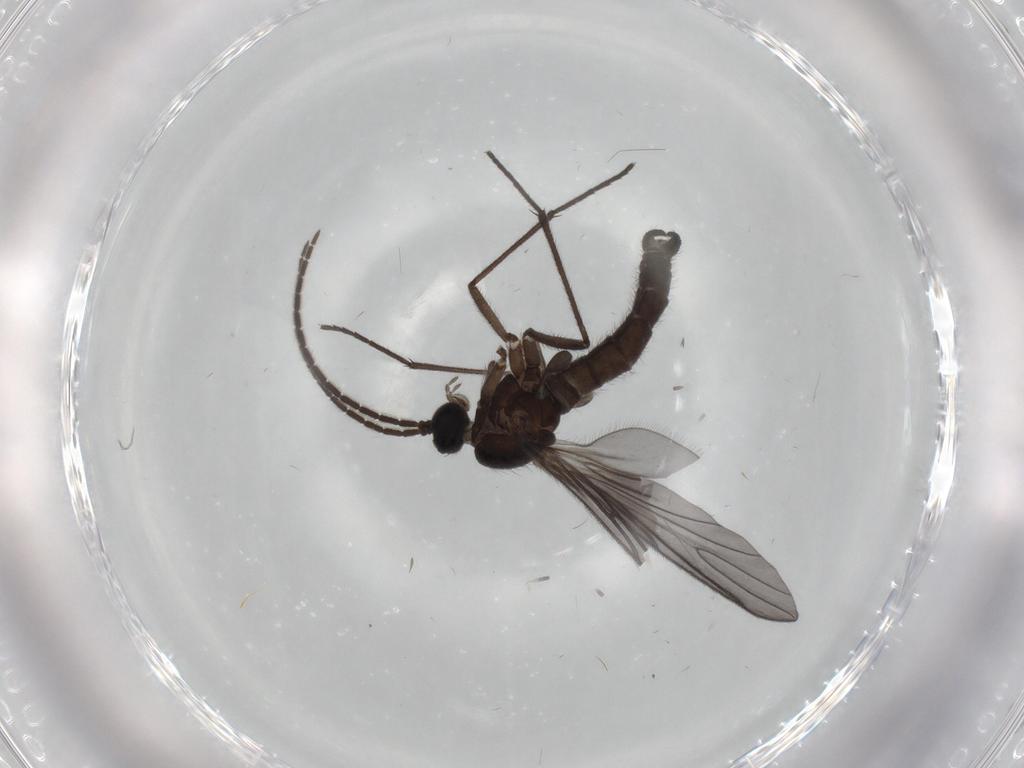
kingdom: Animalia
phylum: Arthropoda
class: Insecta
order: Diptera
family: Sciaridae
